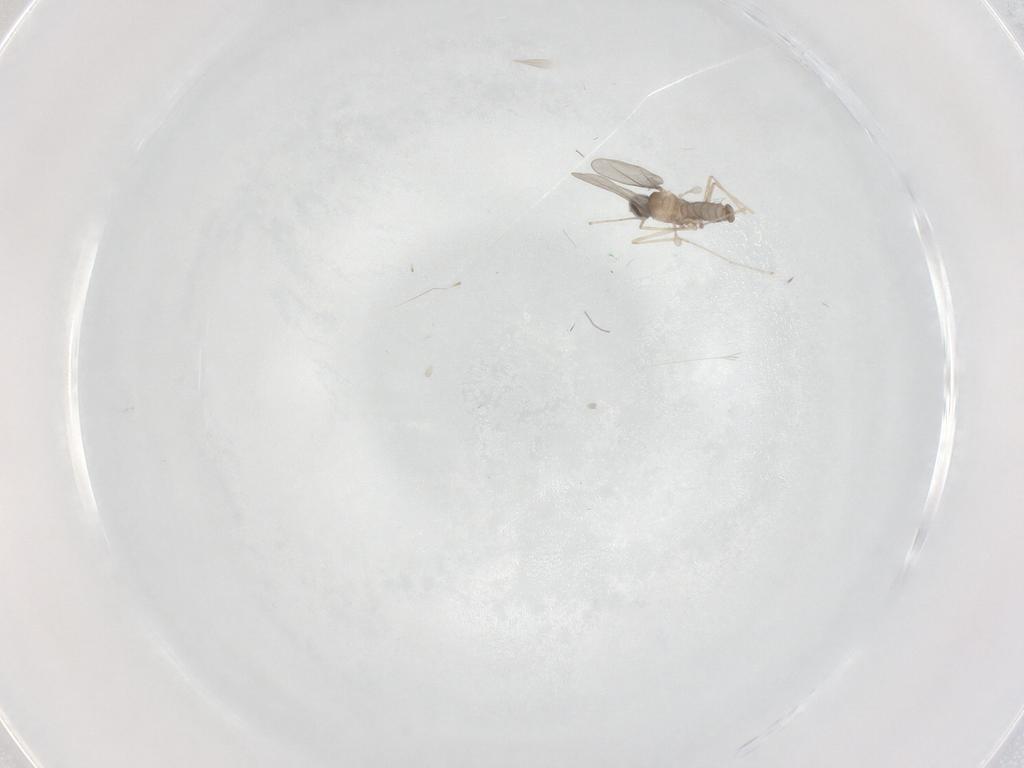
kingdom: Animalia
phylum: Arthropoda
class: Insecta
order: Diptera
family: Cecidomyiidae
